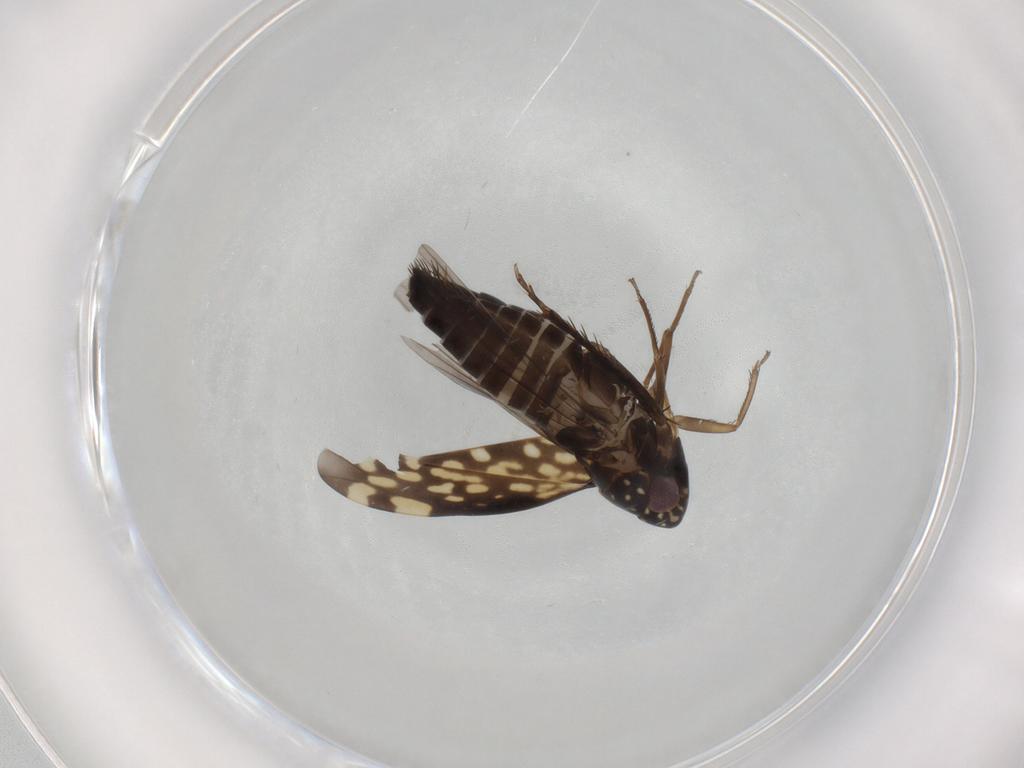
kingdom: Animalia
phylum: Arthropoda
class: Insecta
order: Hemiptera
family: Cicadellidae
